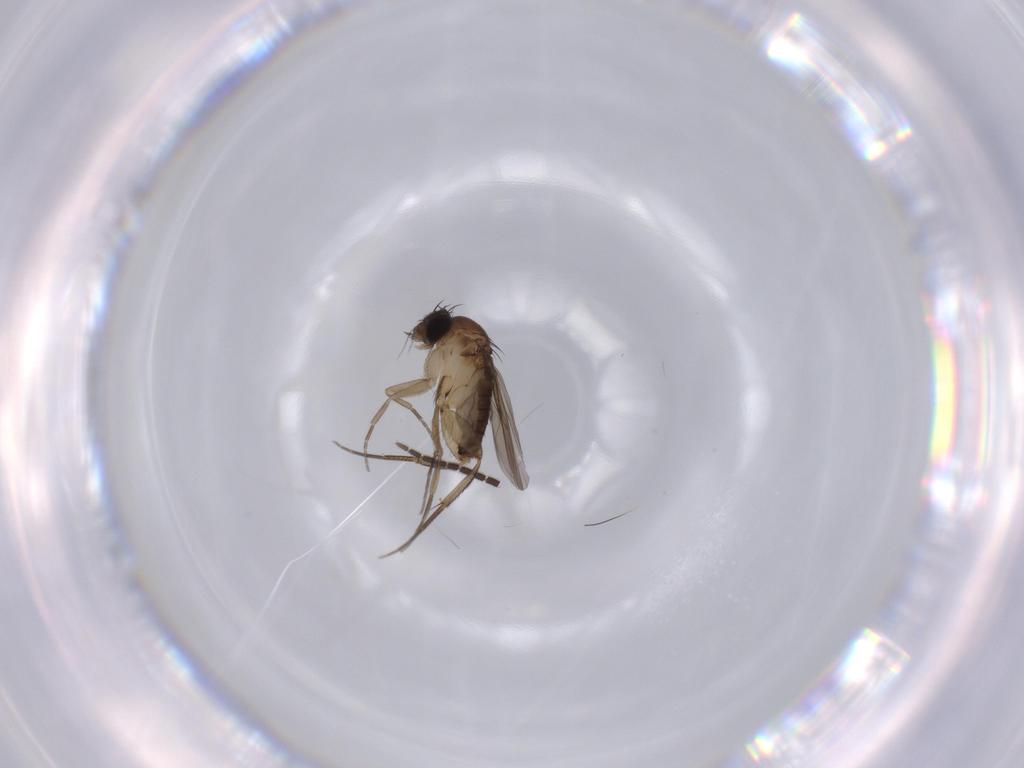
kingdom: Animalia
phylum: Arthropoda
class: Insecta
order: Diptera
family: Phoridae
